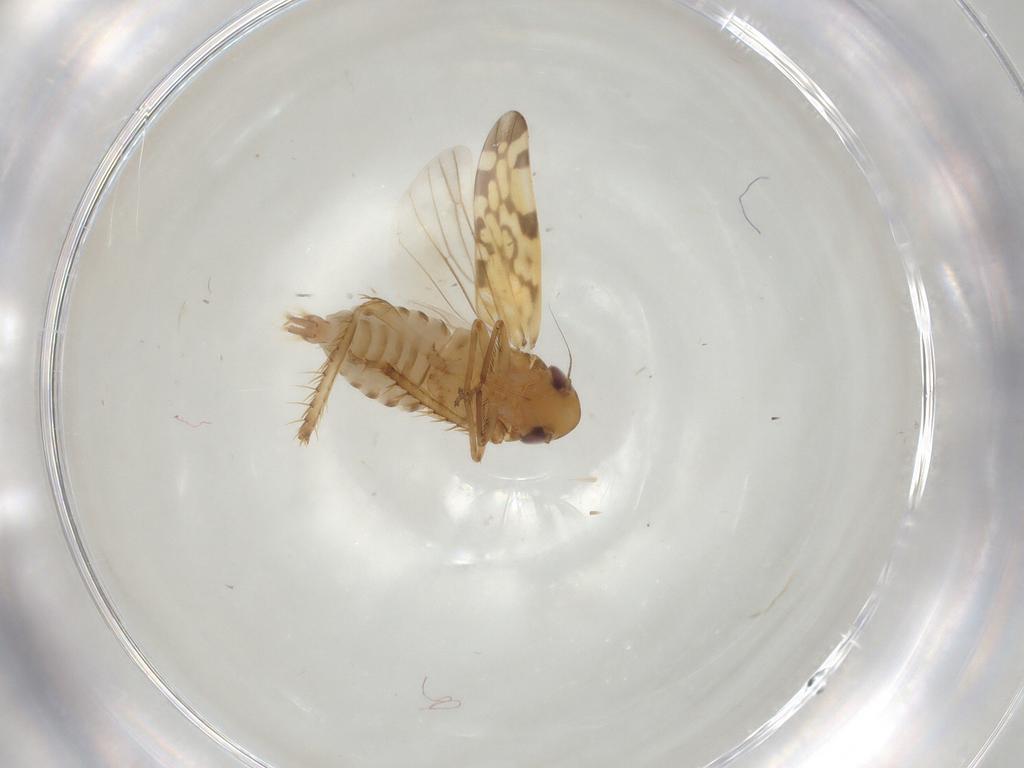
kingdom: Animalia
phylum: Arthropoda
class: Insecta
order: Hemiptera
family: Cicadellidae
